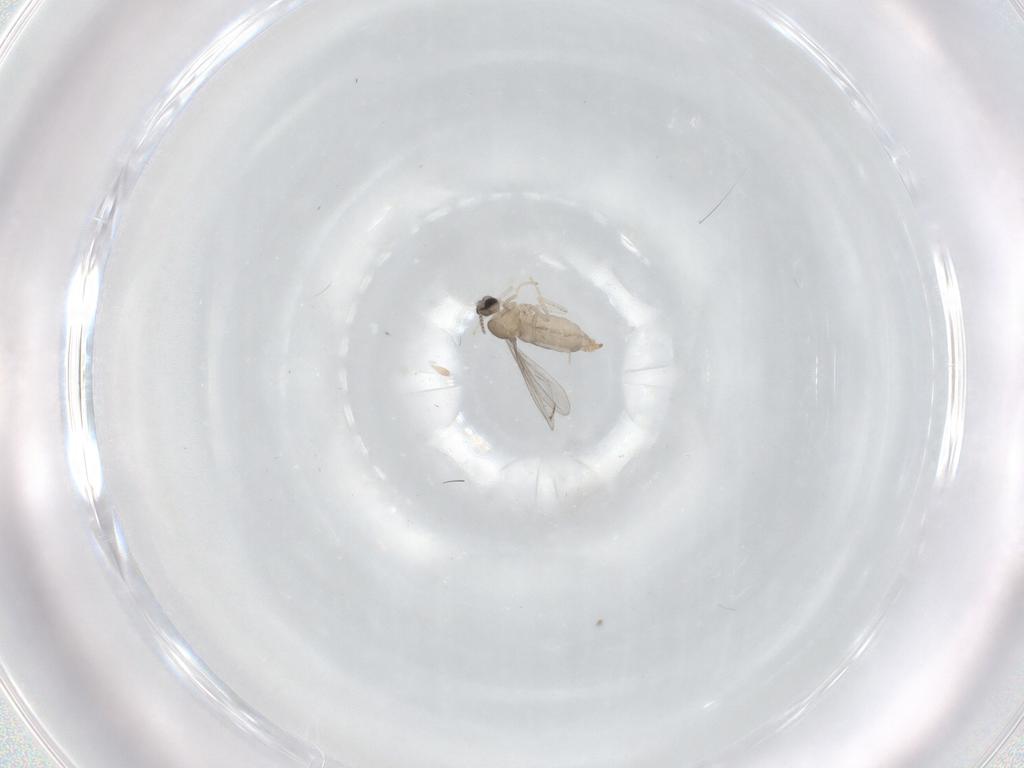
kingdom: Animalia
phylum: Arthropoda
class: Insecta
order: Diptera
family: Cecidomyiidae
